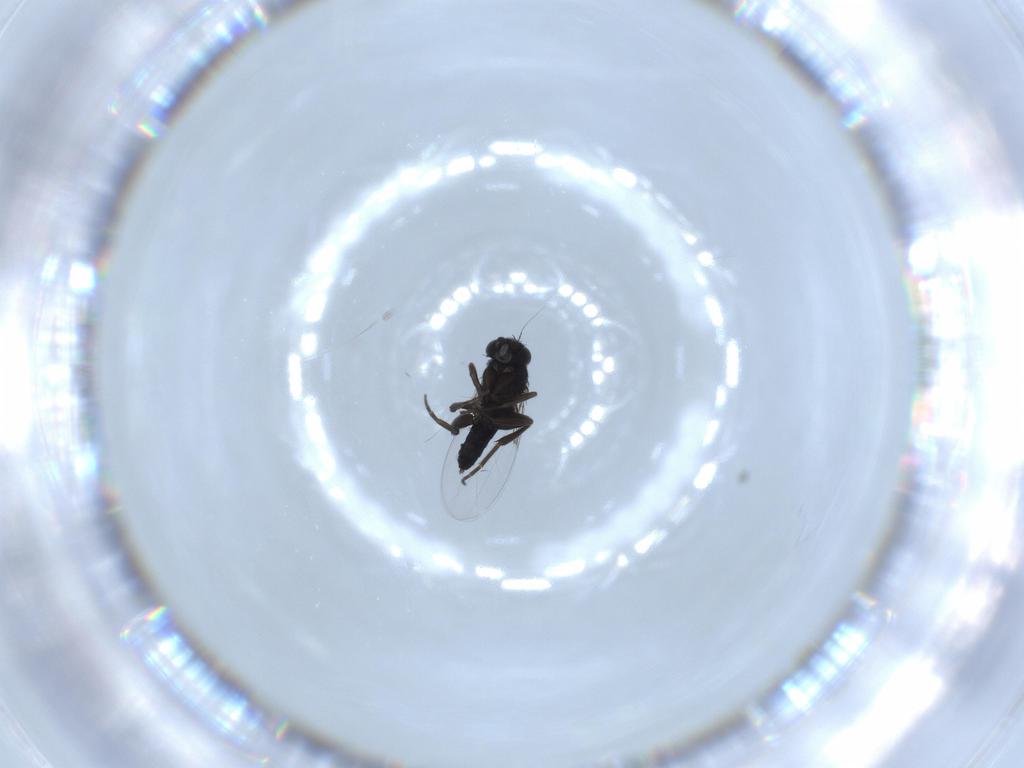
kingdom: Animalia
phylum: Arthropoda
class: Insecta
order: Diptera
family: Phoridae
